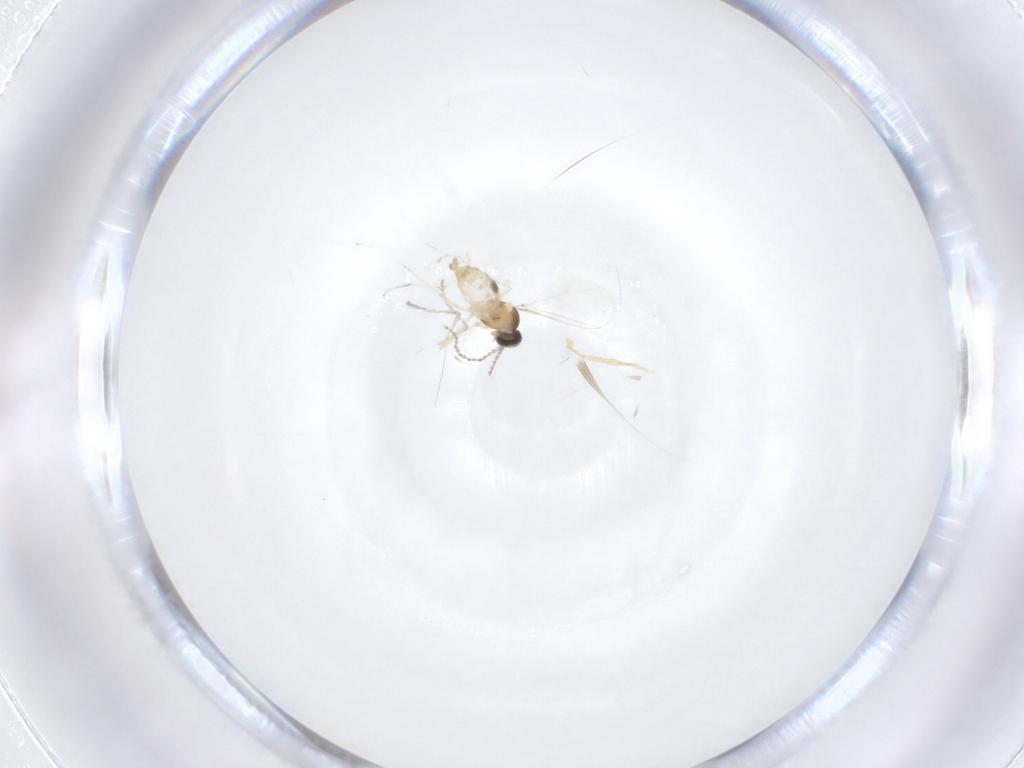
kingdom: Animalia
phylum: Arthropoda
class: Insecta
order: Diptera
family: Cecidomyiidae
